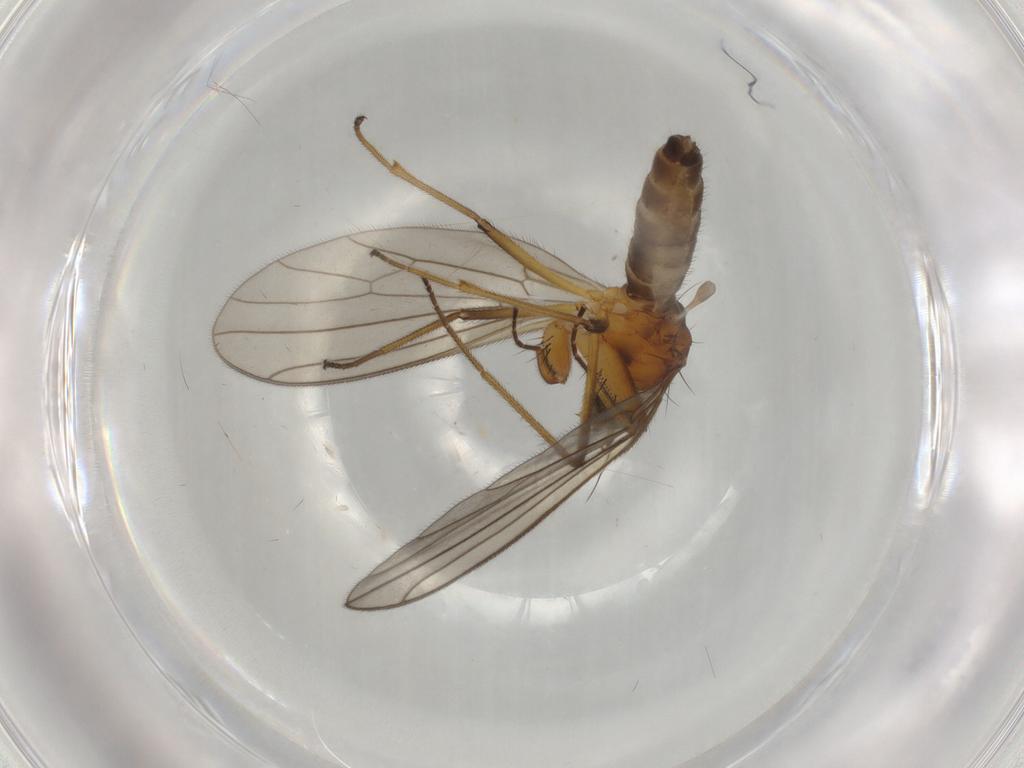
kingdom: Animalia
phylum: Arthropoda
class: Insecta
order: Diptera
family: Empididae
